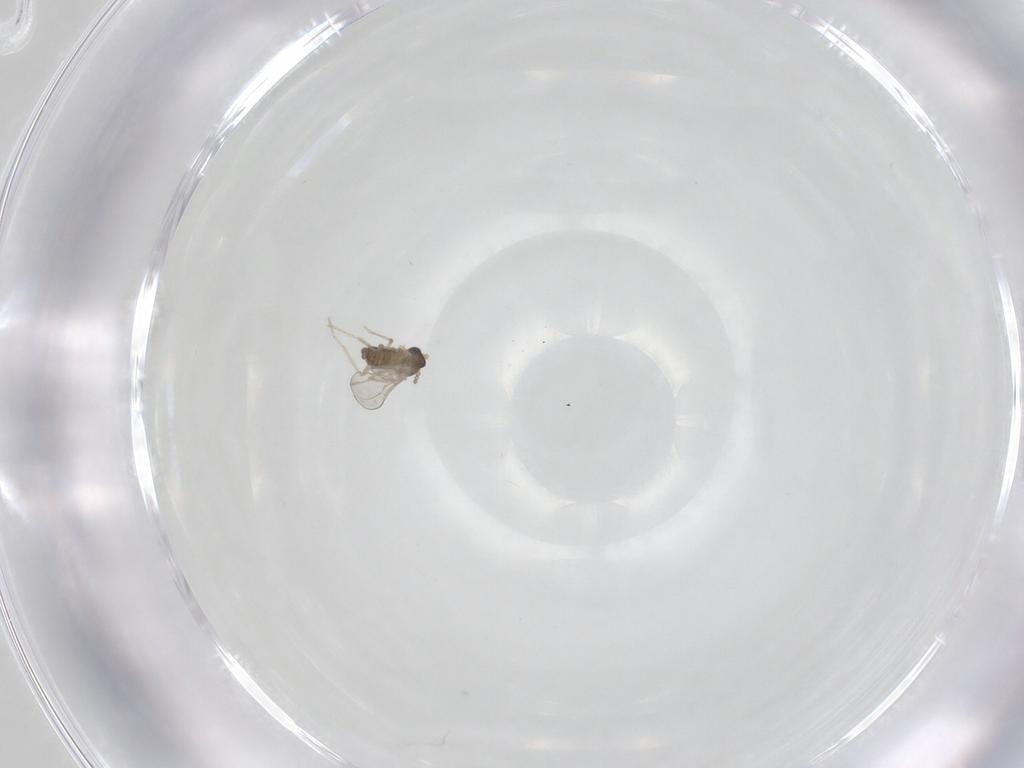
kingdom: Animalia
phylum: Arthropoda
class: Insecta
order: Diptera
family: Cecidomyiidae
